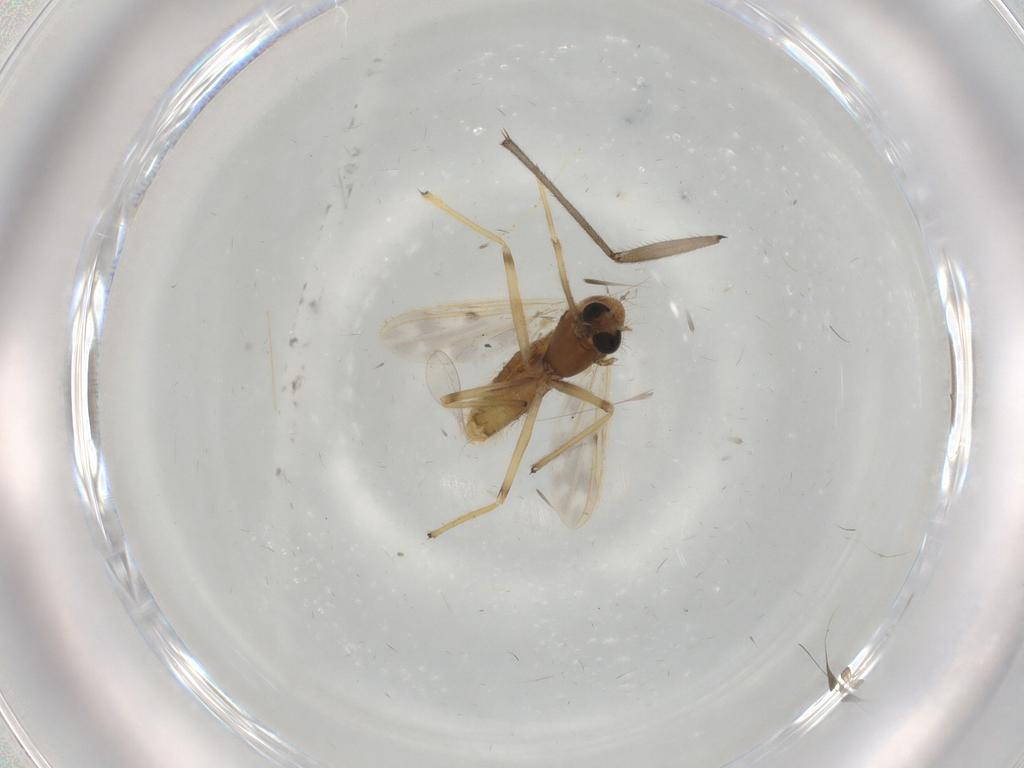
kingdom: Animalia
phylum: Arthropoda
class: Insecta
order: Diptera
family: Chironomidae
